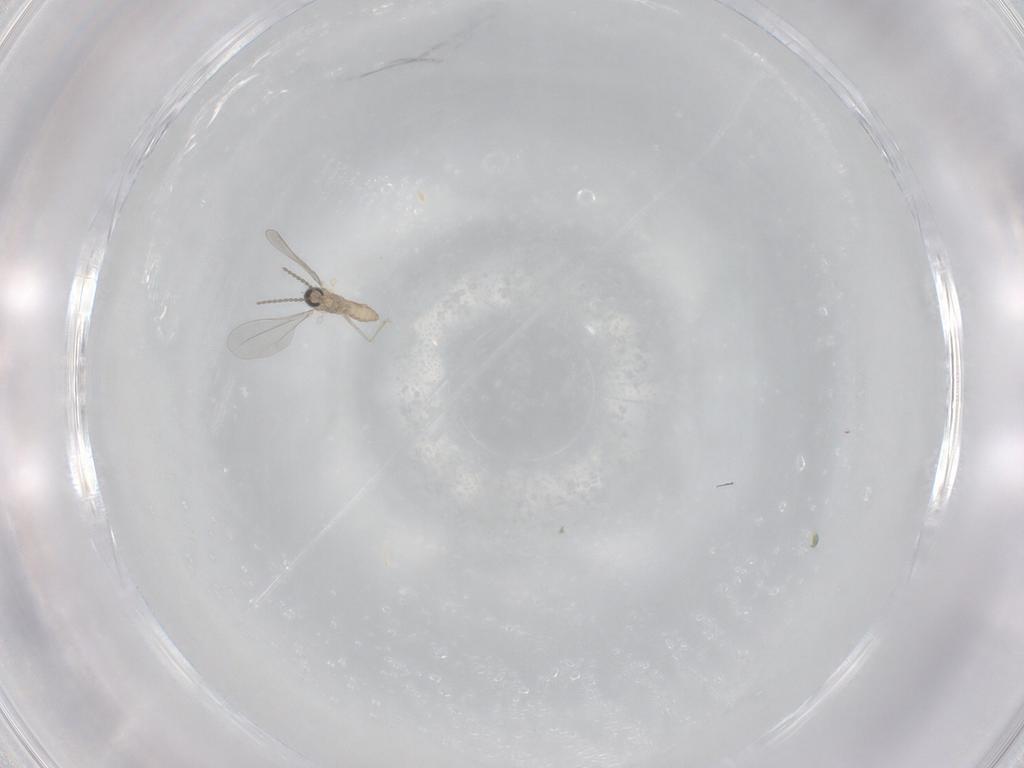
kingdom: Animalia
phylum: Arthropoda
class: Insecta
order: Diptera
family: Cecidomyiidae
